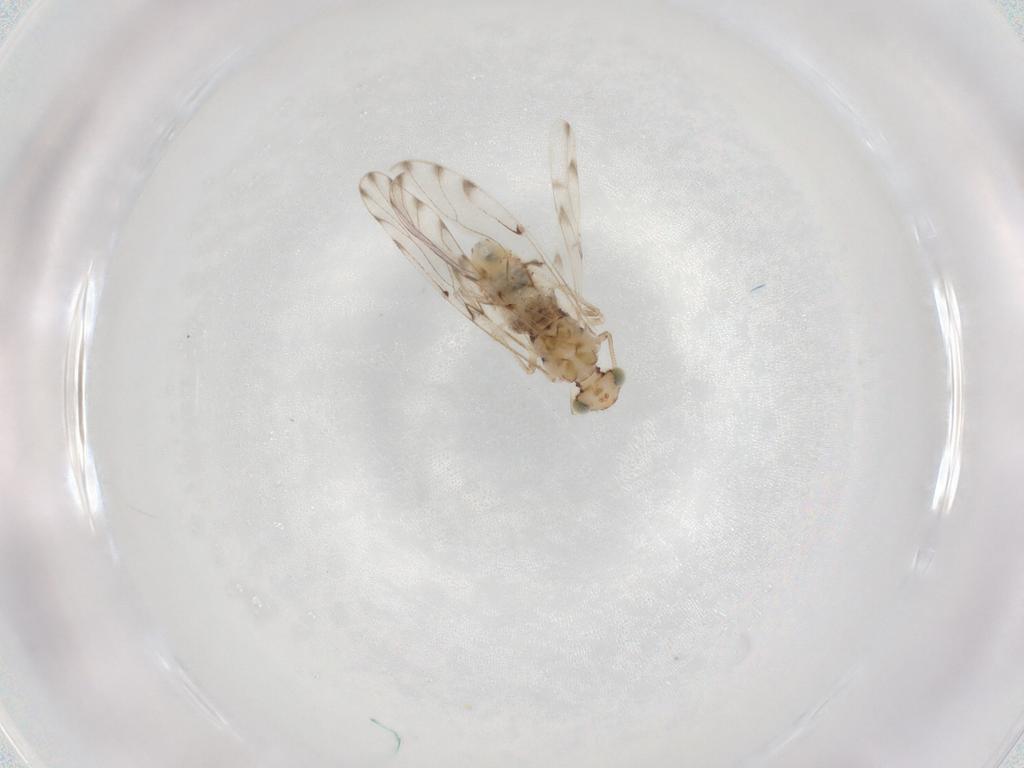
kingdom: Animalia
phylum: Arthropoda
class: Insecta
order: Psocodea
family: Ectopsocidae
